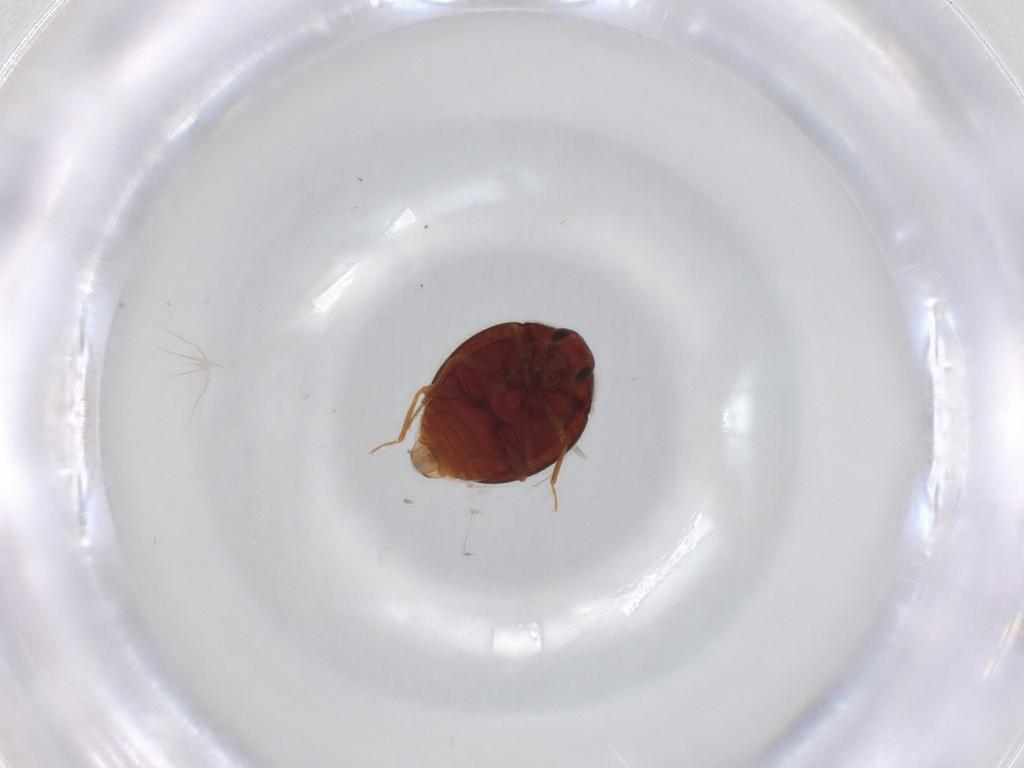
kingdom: Animalia
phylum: Arthropoda
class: Insecta
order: Coleoptera
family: Anamorphidae
